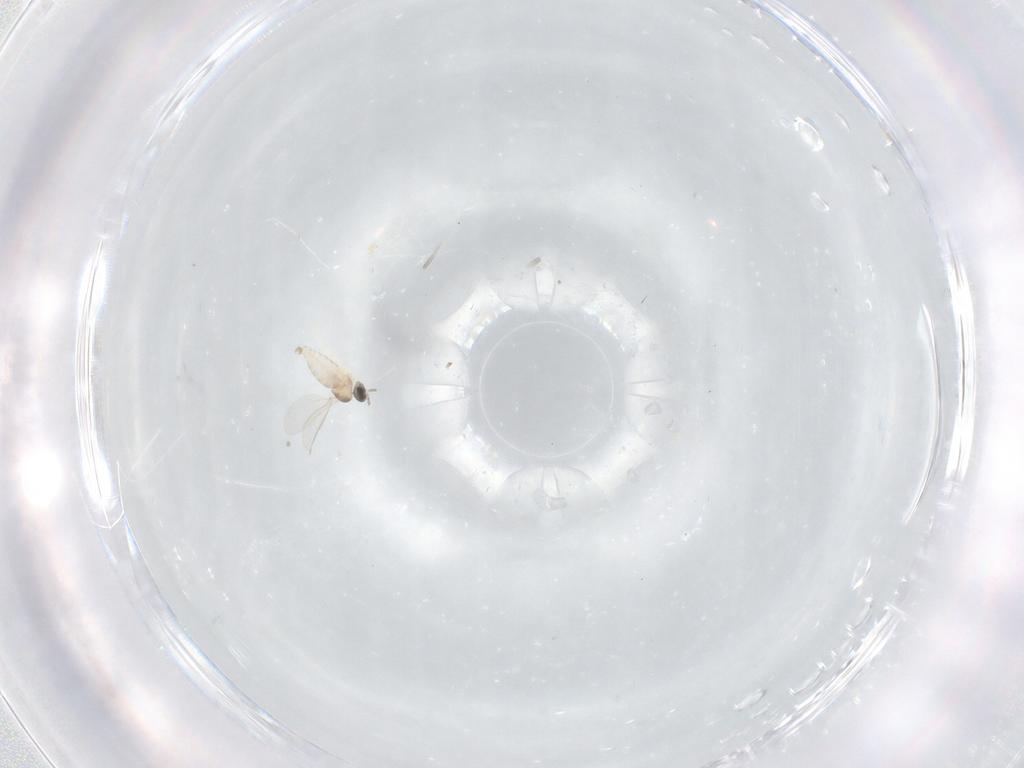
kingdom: Animalia
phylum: Arthropoda
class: Insecta
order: Diptera
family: Cecidomyiidae
